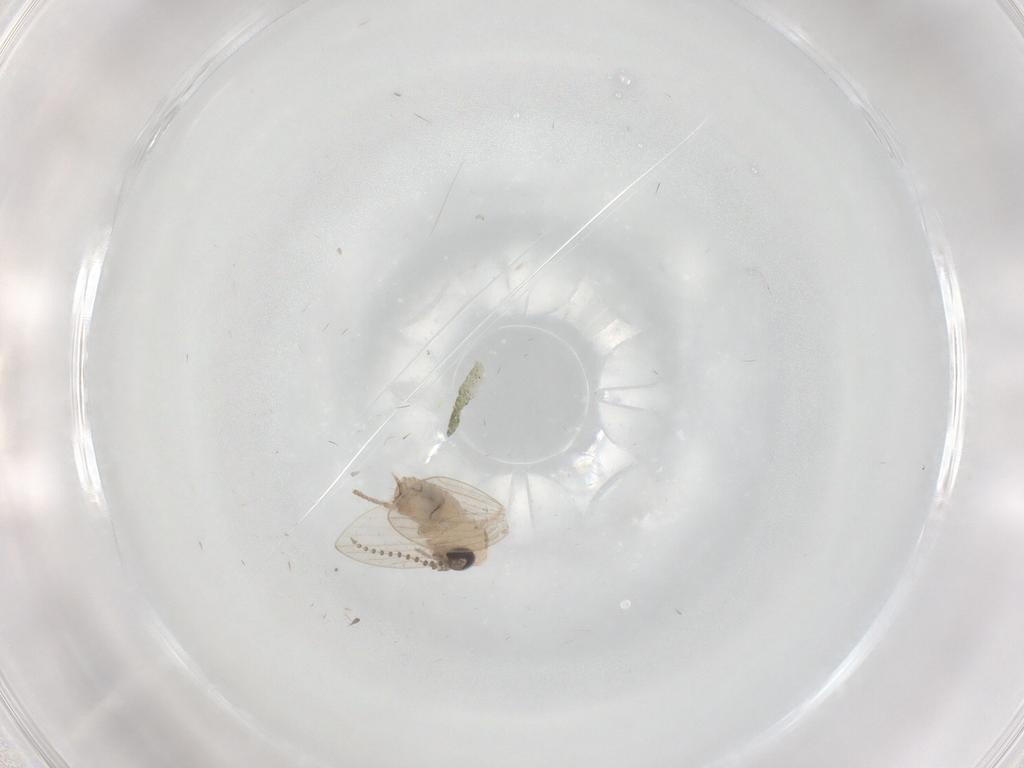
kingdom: Animalia
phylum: Arthropoda
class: Insecta
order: Diptera
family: Psychodidae
